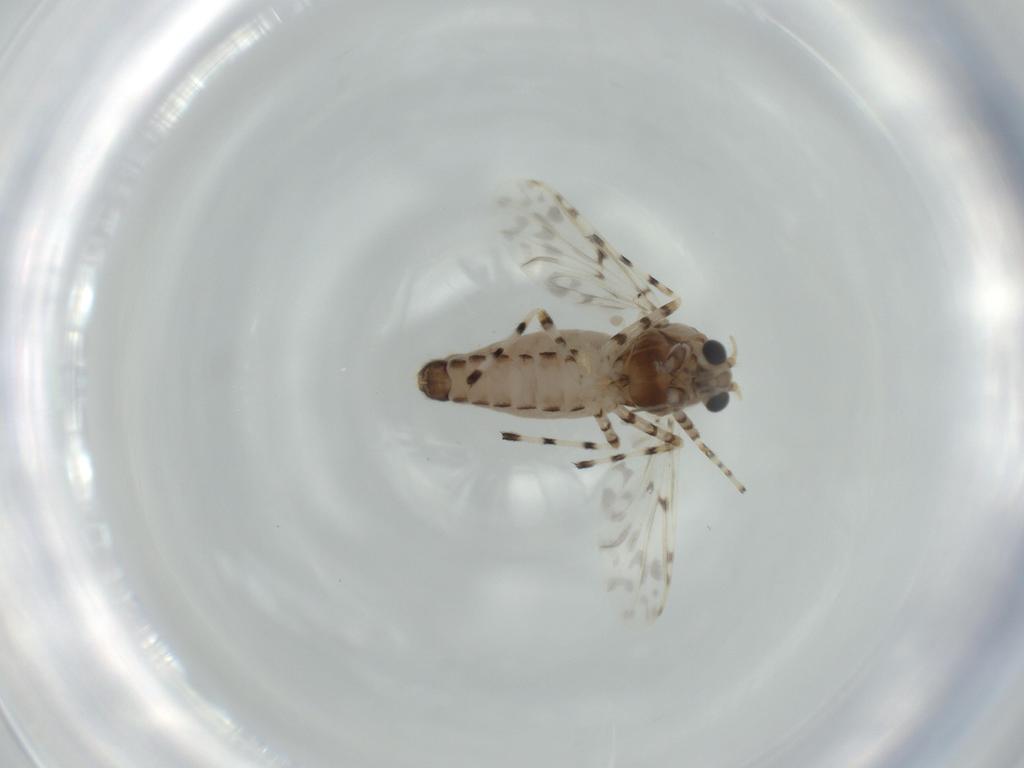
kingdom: Animalia
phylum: Arthropoda
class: Insecta
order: Diptera
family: Chironomidae
